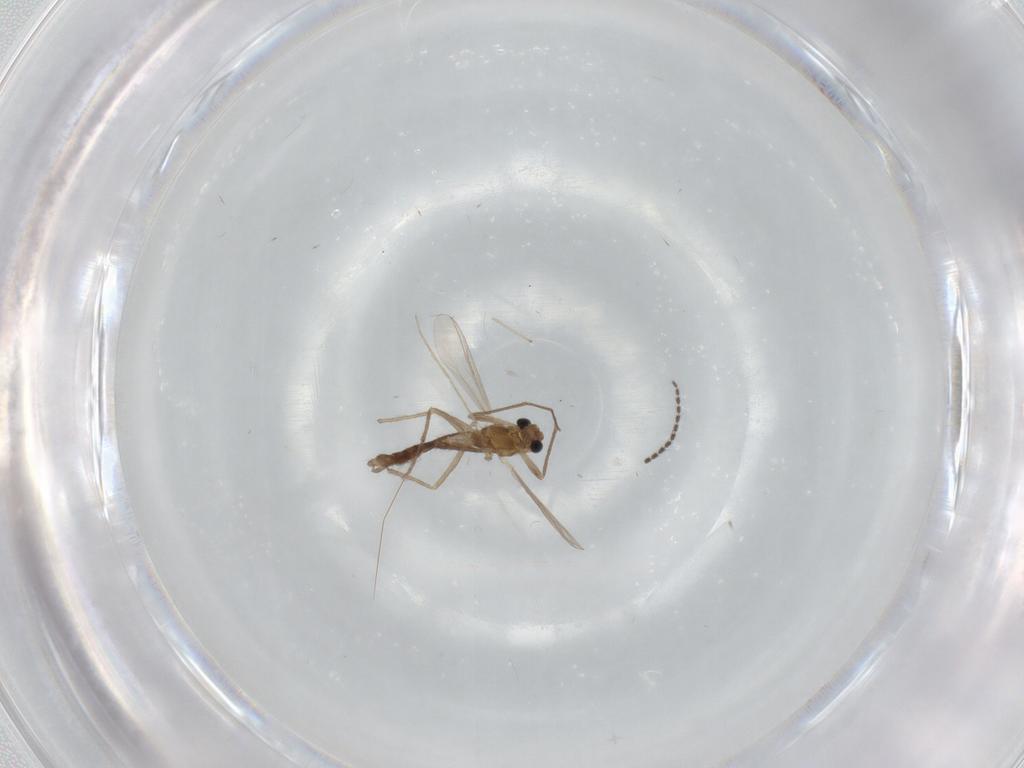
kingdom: Animalia
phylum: Arthropoda
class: Insecta
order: Diptera
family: Chironomidae
